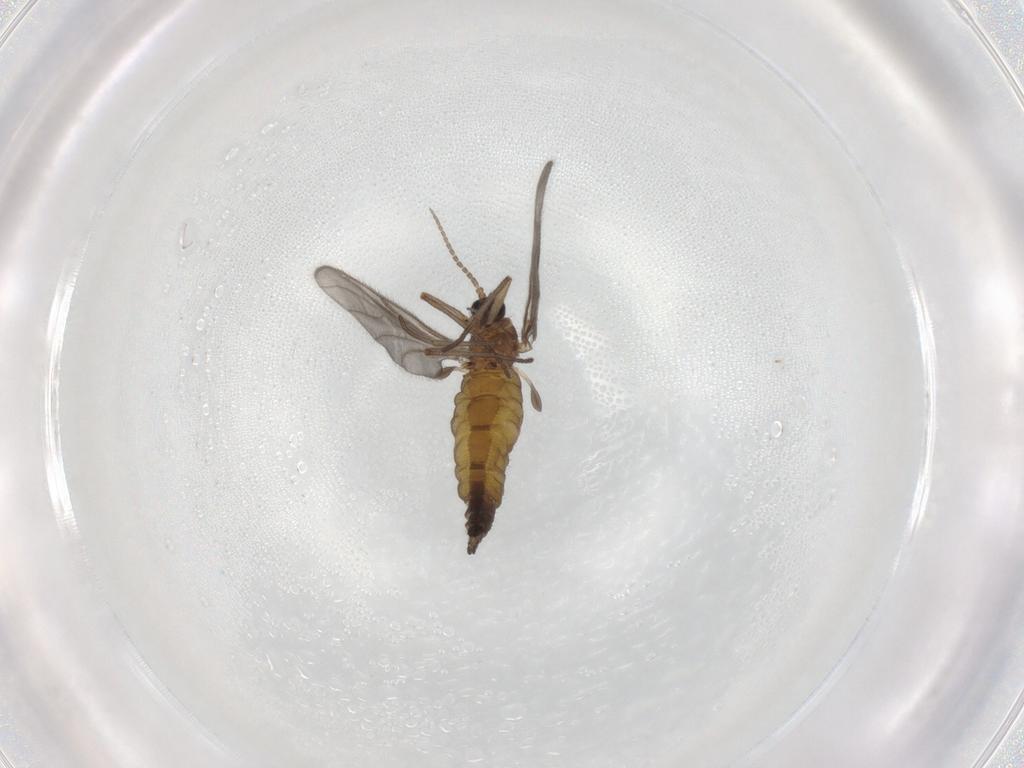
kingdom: Animalia
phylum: Arthropoda
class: Insecta
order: Diptera
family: Sciaridae
